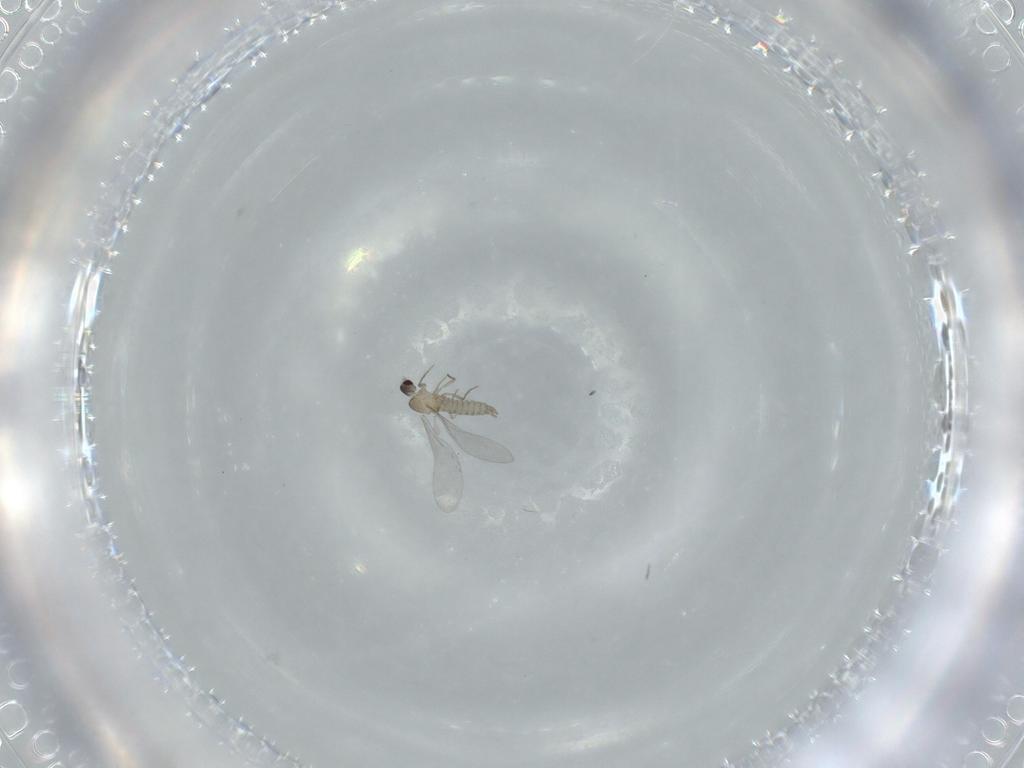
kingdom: Animalia
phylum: Arthropoda
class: Insecta
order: Diptera
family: Cecidomyiidae
